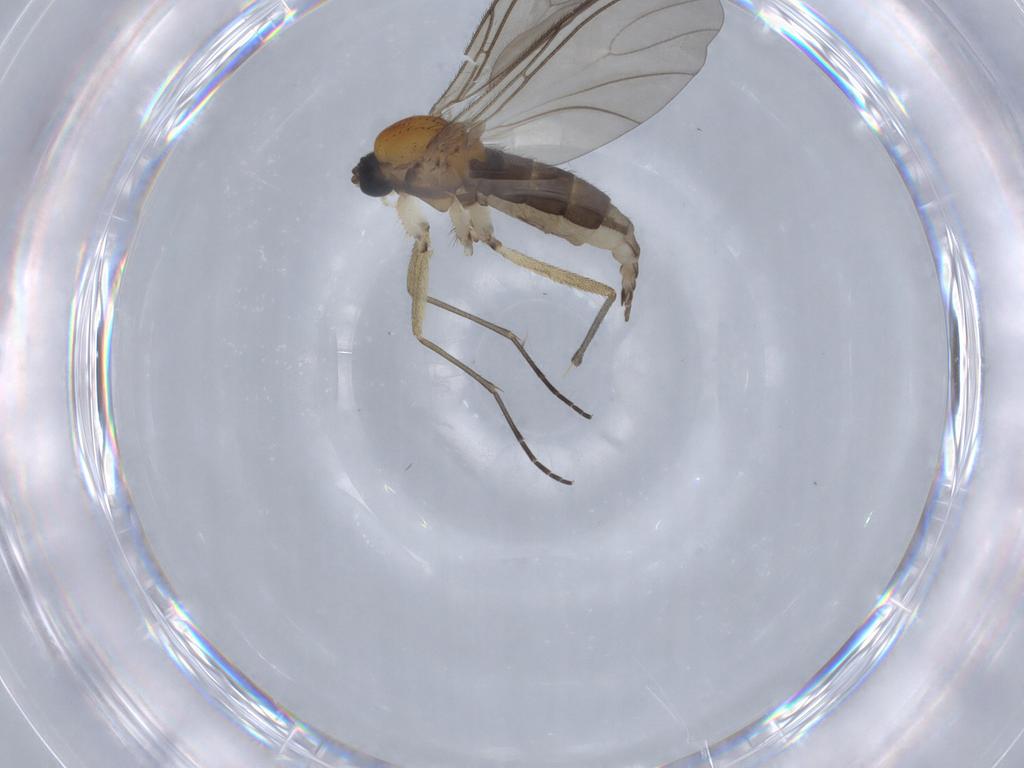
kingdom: Animalia
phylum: Arthropoda
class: Insecta
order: Diptera
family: Sciaridae
